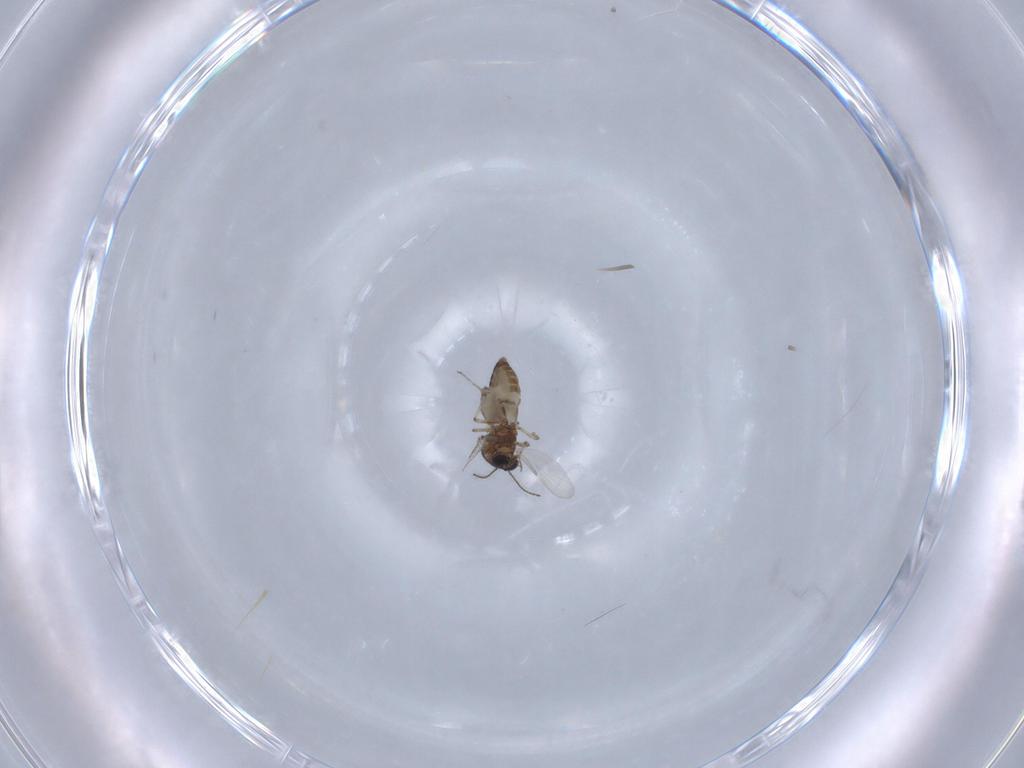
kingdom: Animalia
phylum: Arthropoda
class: Insecta
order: Diptera
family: Ceratopogonidae
